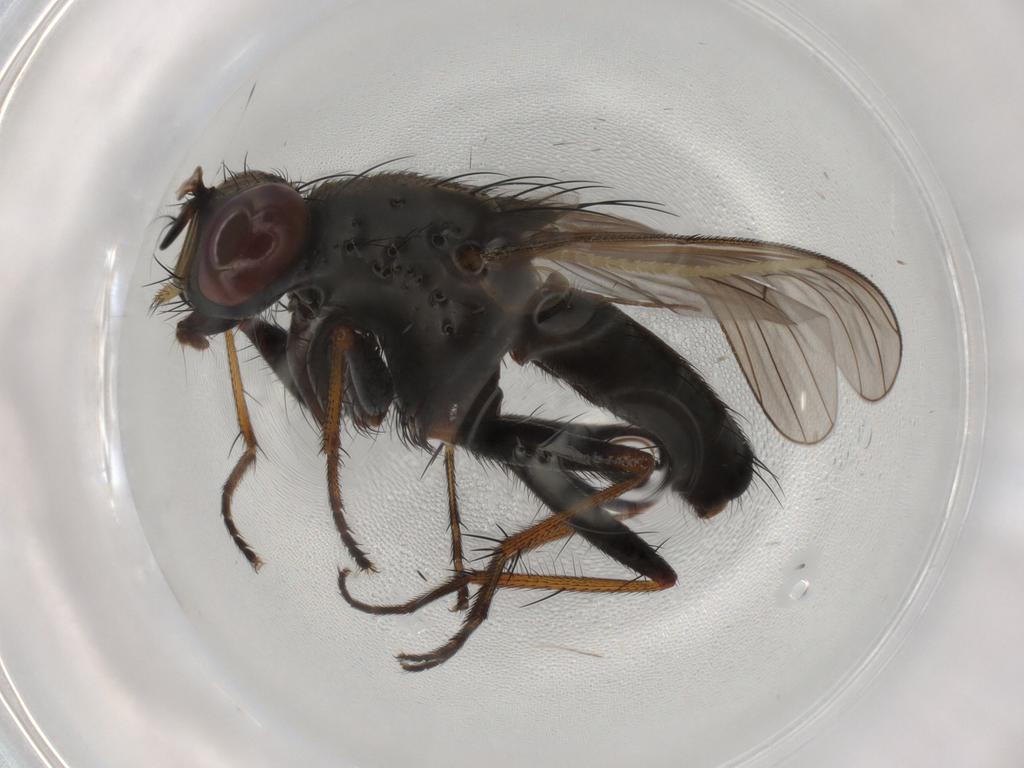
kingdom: Animalia
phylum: Arthropoda
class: Insecta
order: Diptera
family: Muscidae
